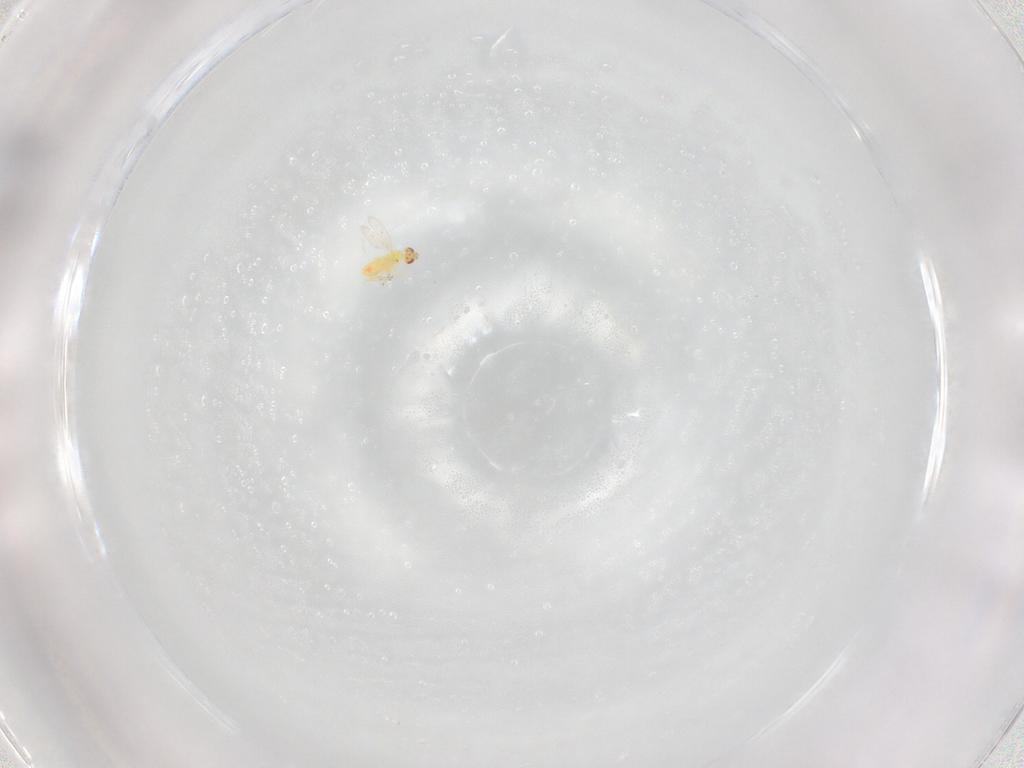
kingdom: Animalia
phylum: Arthropoda
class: Insecta
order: Hymenoptera
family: Scelionidae
